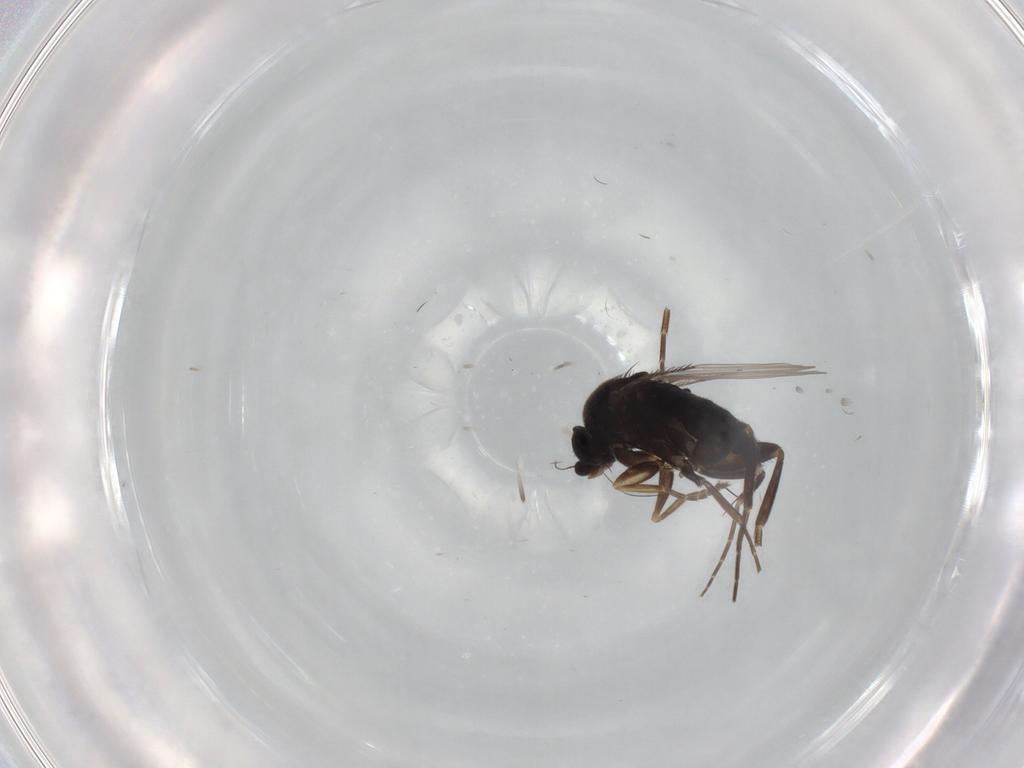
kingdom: Animalia
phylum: Arthropoda
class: Insecta
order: Diptera
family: Phoridae
